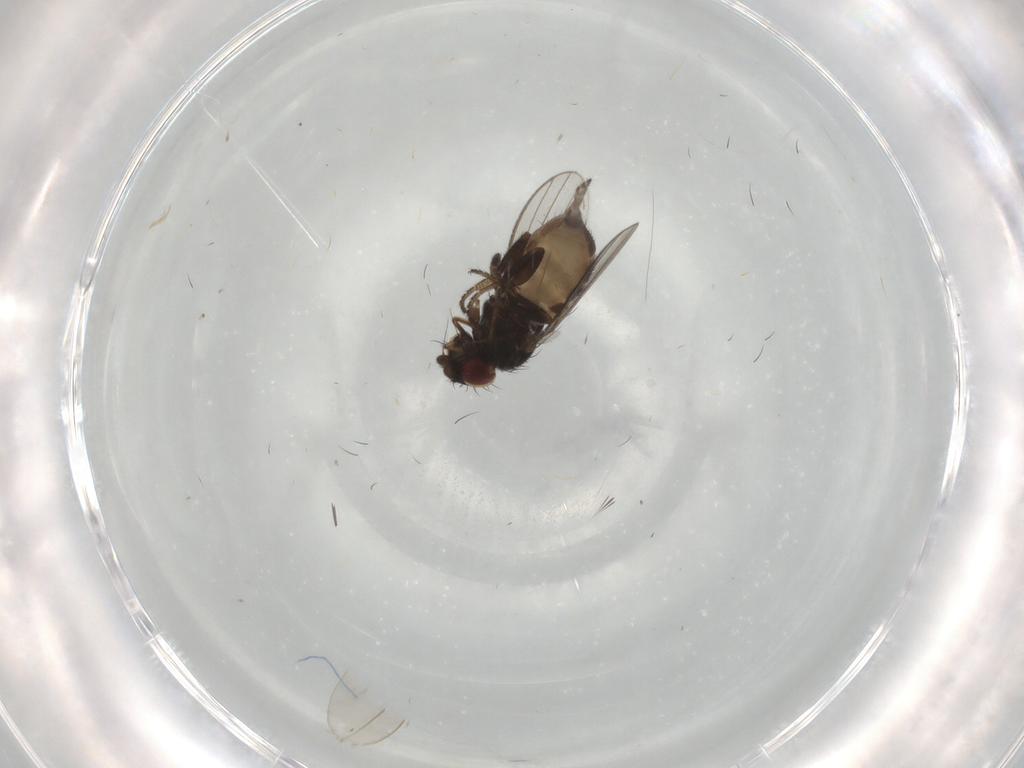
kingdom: Animalia
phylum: Arthropoda
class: Insecta
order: Diptera
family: Milichiidae
